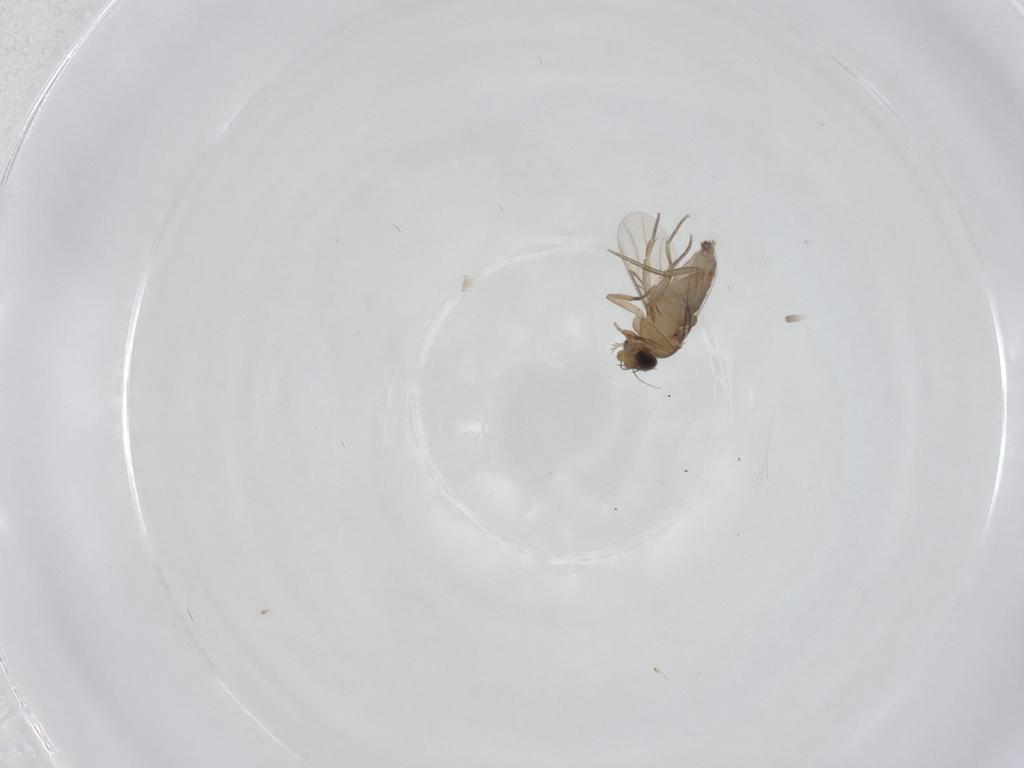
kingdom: Animalia
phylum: Arthropoda
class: Insecta
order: Diptera
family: Phoridae
